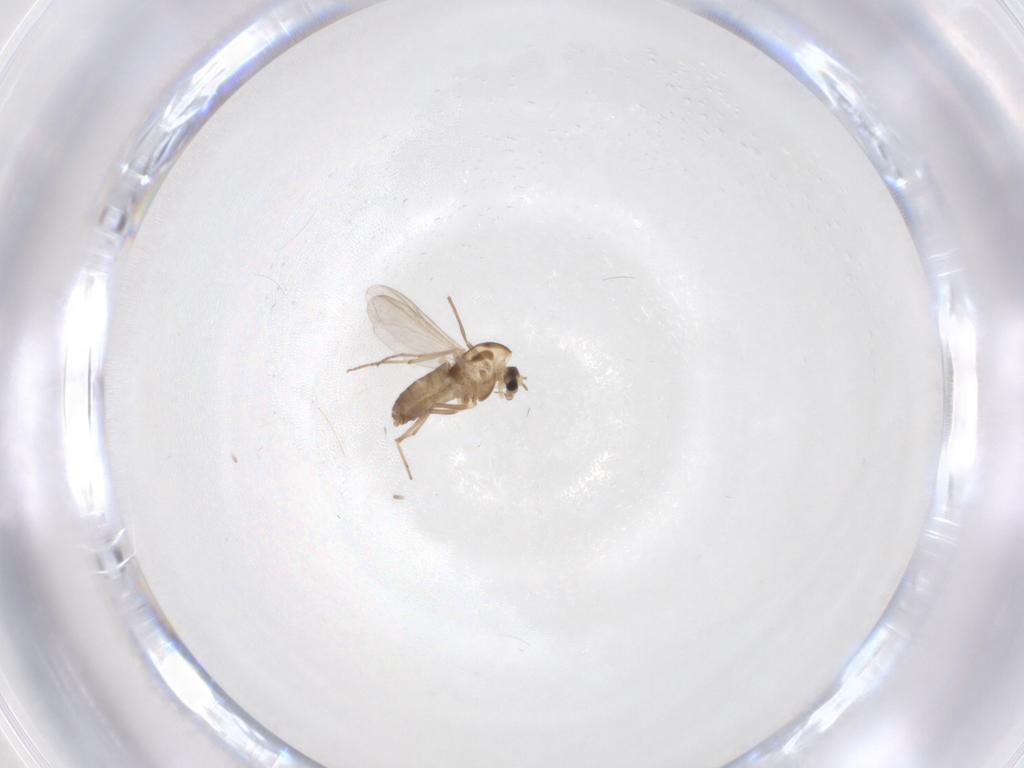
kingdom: Animalia
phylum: Arthropoda
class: Insecta
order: Diptera
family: Chironomidae
